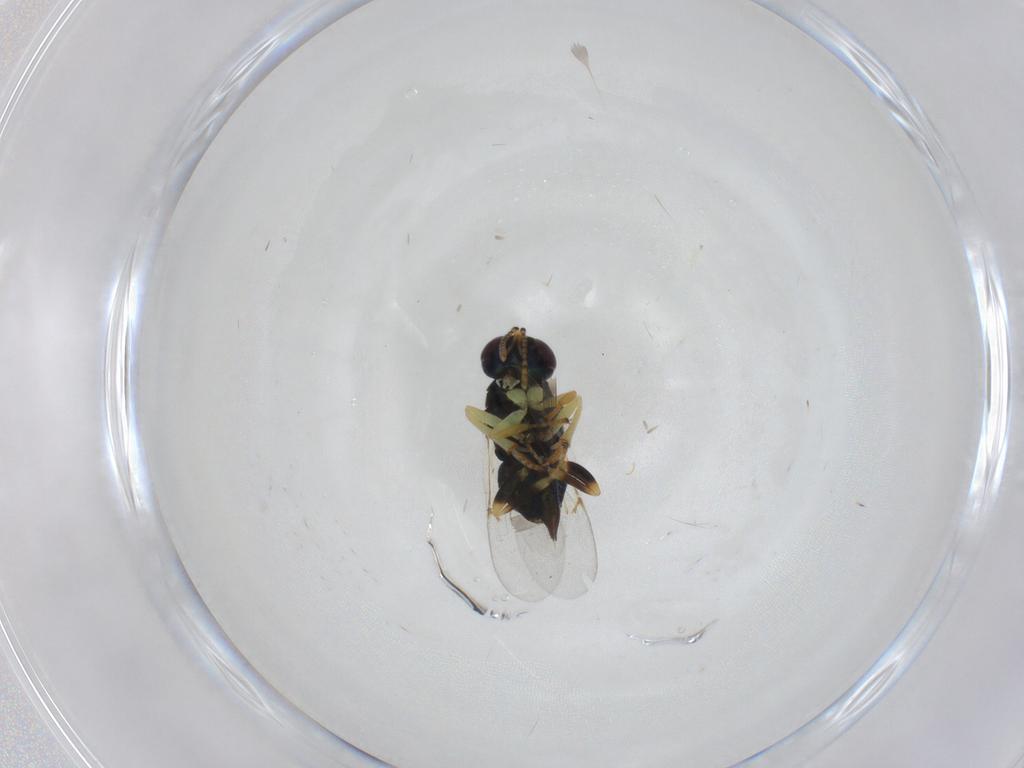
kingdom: Animalia
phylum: Arthropoda
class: Insecta
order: Hymenoptera
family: Encyrtidae
